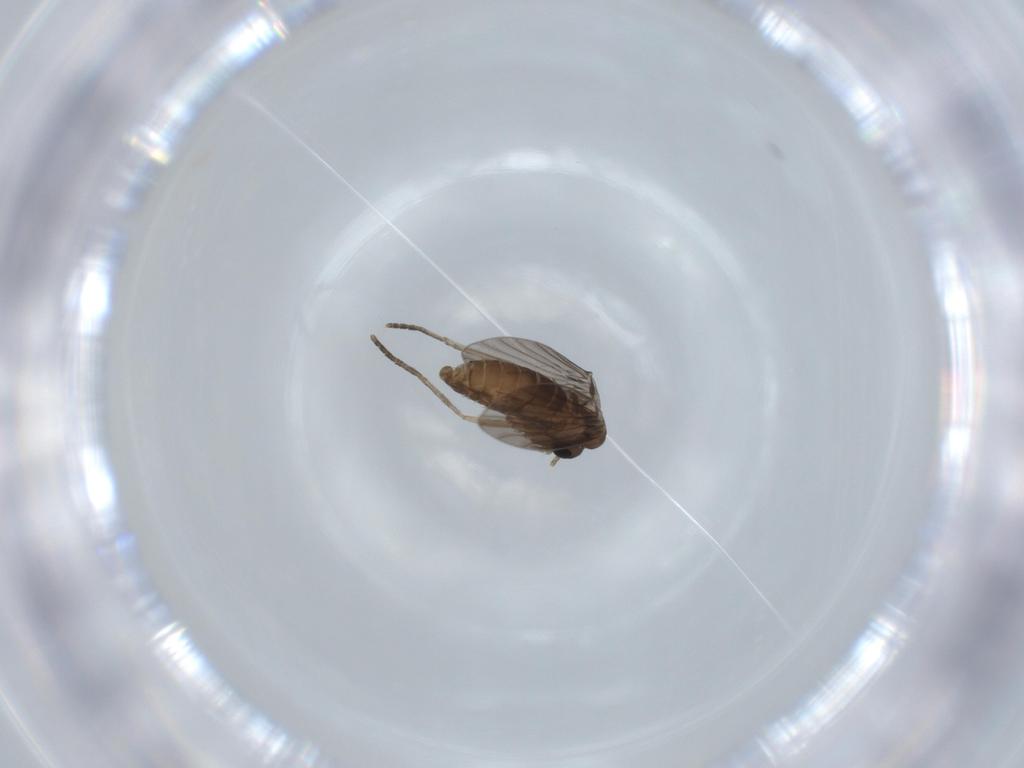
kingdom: Animalia
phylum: Arthropoda
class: Insecta
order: Diptera
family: Psychodidae
